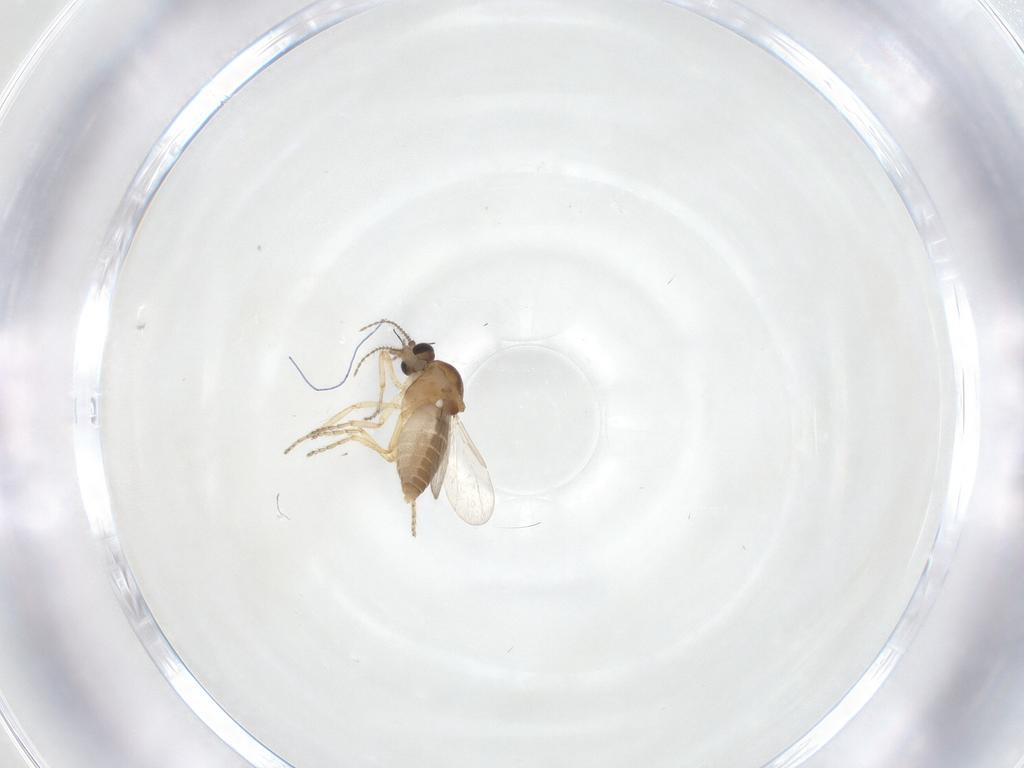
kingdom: Animalia
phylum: Arthropoda
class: Insecta
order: Diptera
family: Ceratopogonidae
